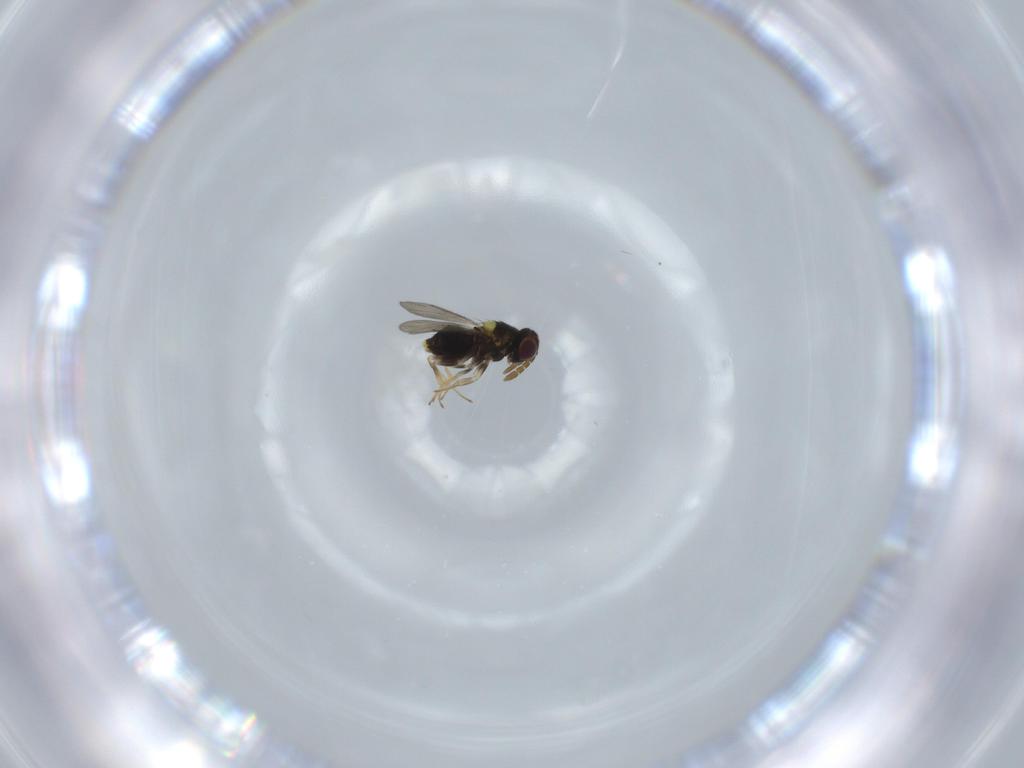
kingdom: Animalia
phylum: Arthropoda
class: Insecta
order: Hymenoptera
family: Aphelinidae
